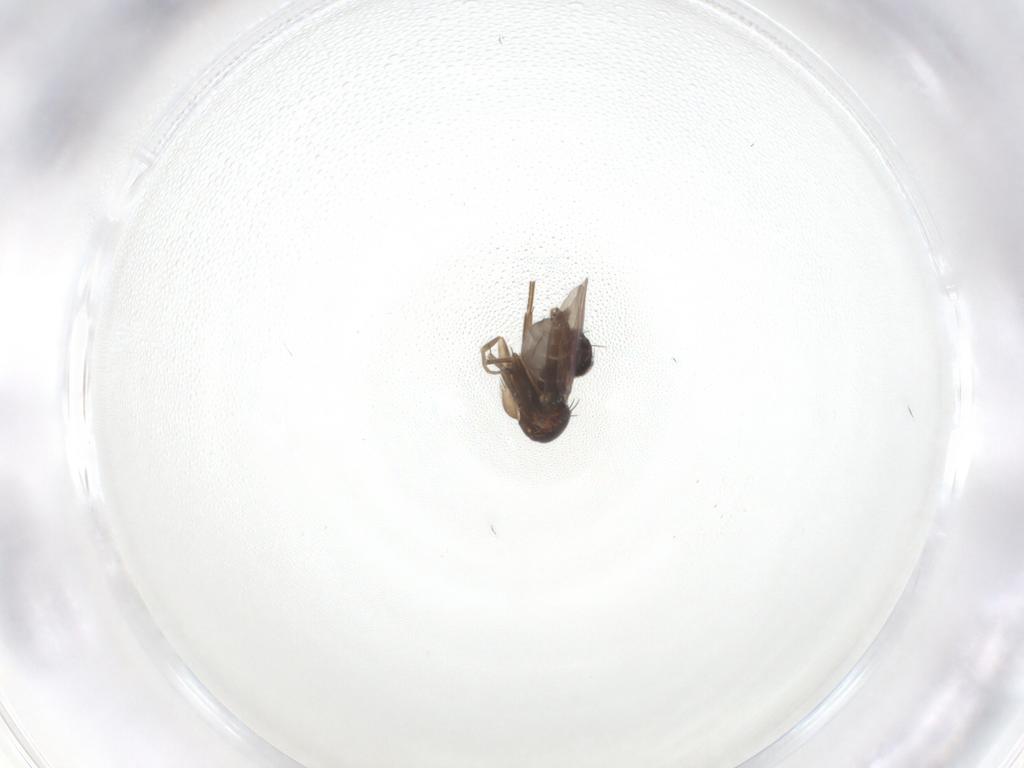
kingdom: Animalia
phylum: Arthropoda
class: Insecta
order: Diptera
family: Phoridae
